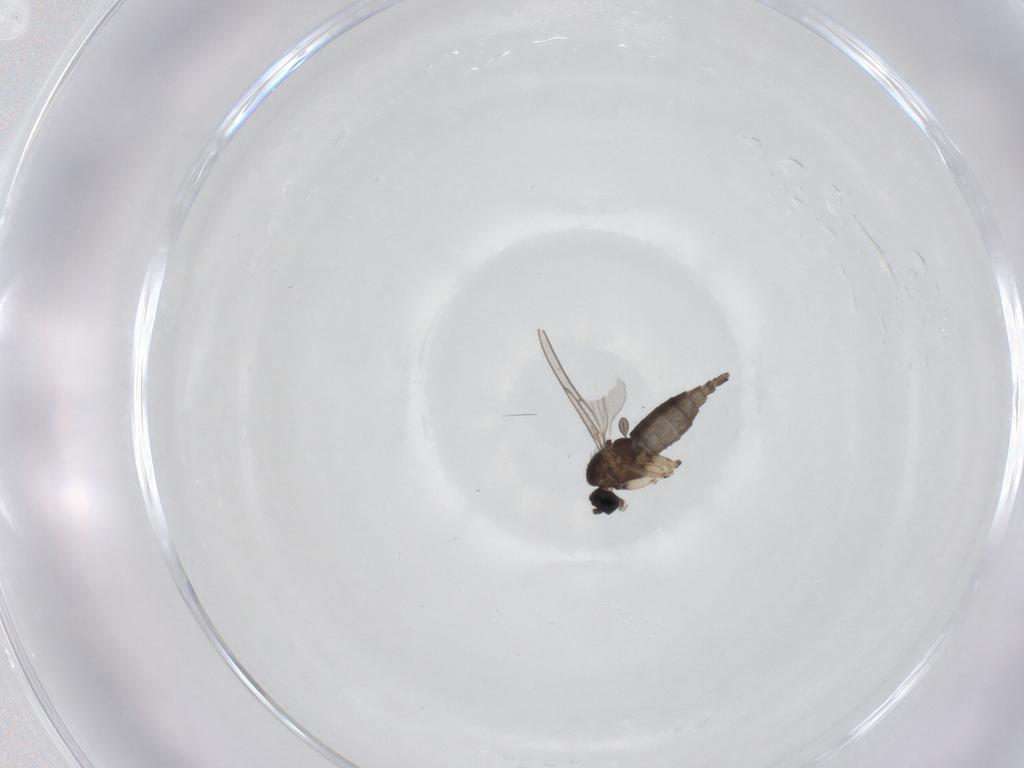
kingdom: Animalia
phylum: Arthropoda
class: Insecta
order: Diptera
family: Sciaridae
